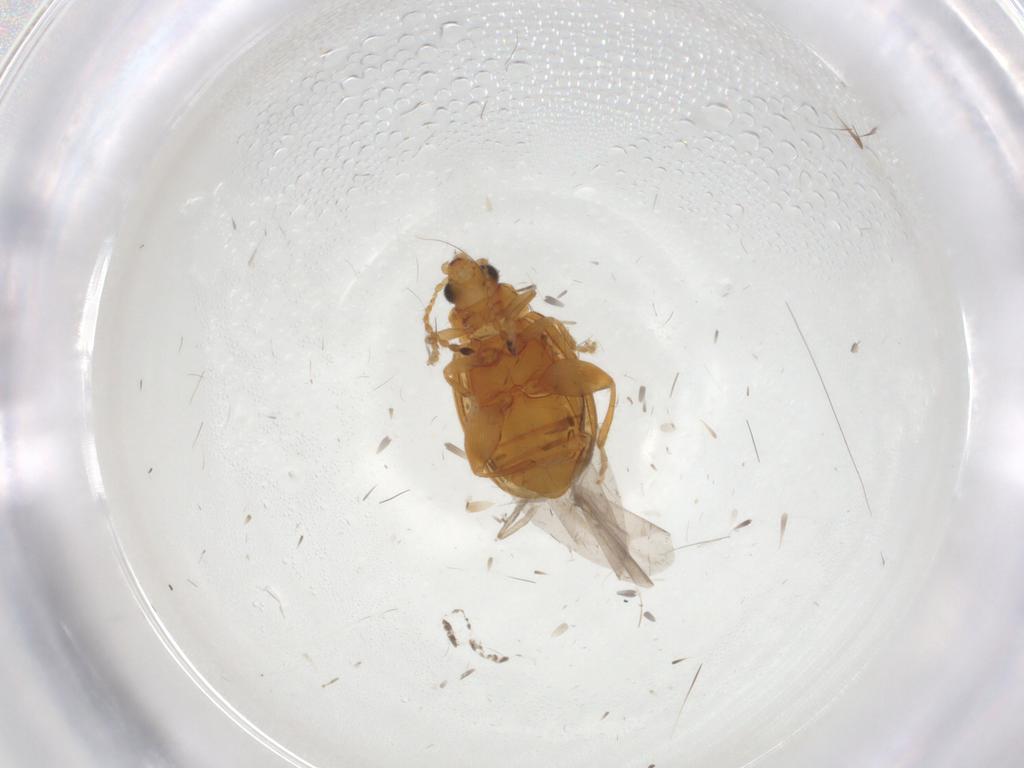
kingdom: Animalia
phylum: Arthropoda
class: Insecta
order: Coleoptera
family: Chrysomelidae
